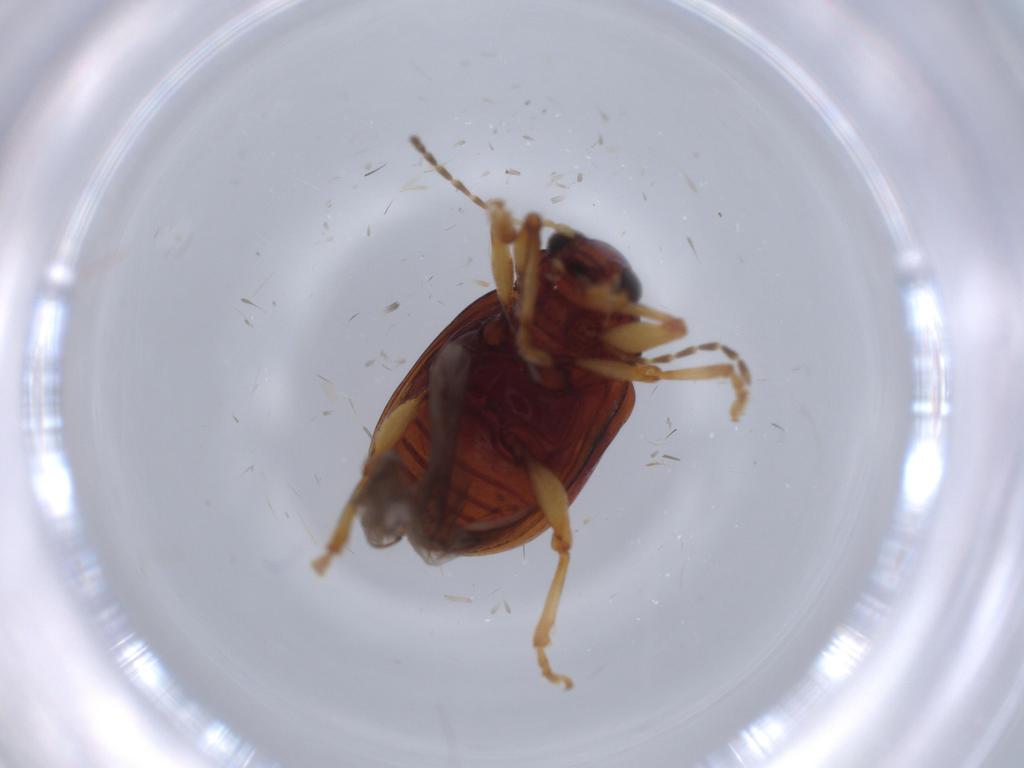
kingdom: Animalia
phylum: Arthropoda
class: Insecta
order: Coleoptera
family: Chrysomelidae
